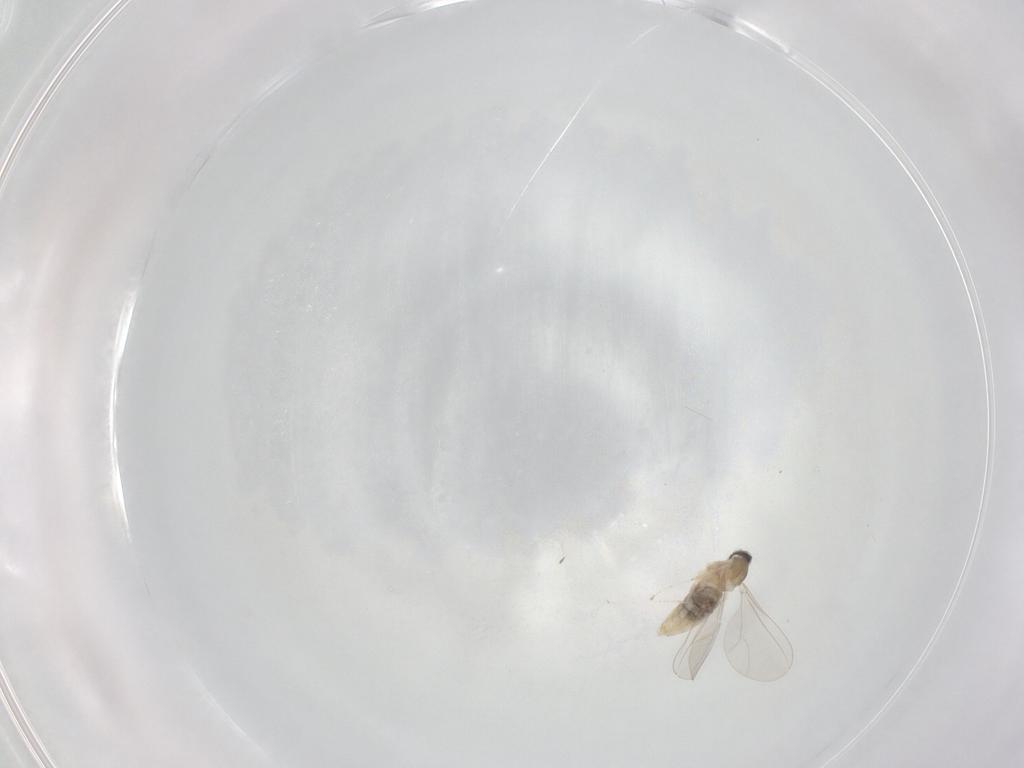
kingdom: Animalia
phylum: Arthropoda
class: Insecta
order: Diptera
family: Cecidomyiidae
